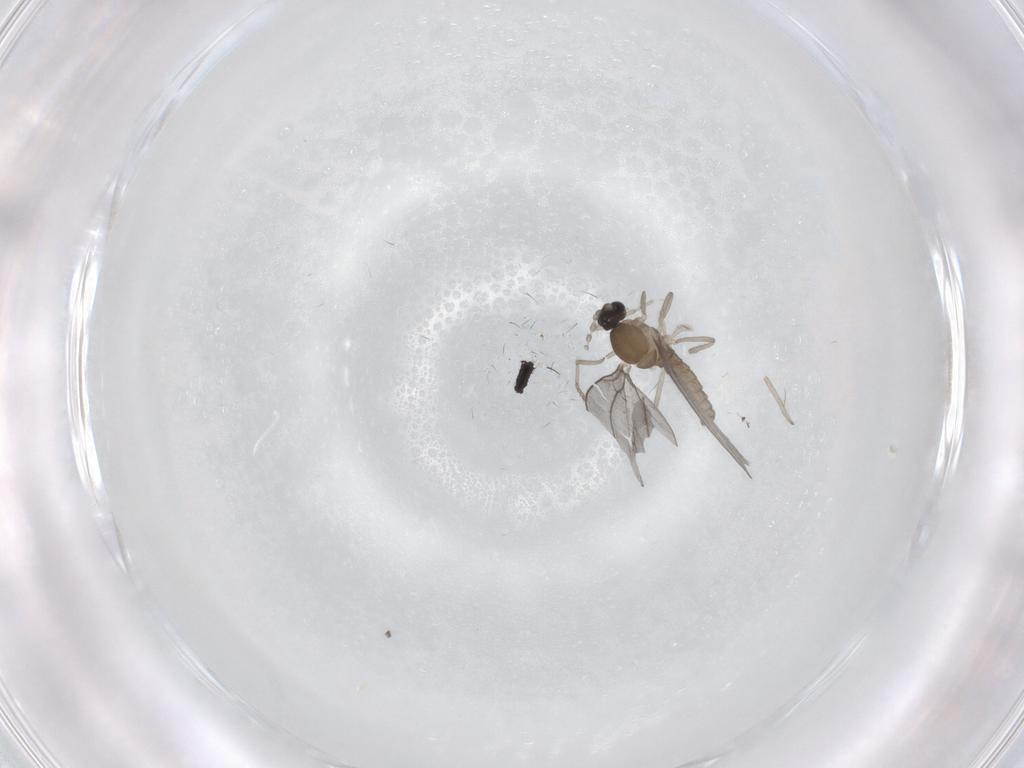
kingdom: Animalia
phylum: Arthropoda
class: Insecta
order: Diptera
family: Cecidomyiidae
